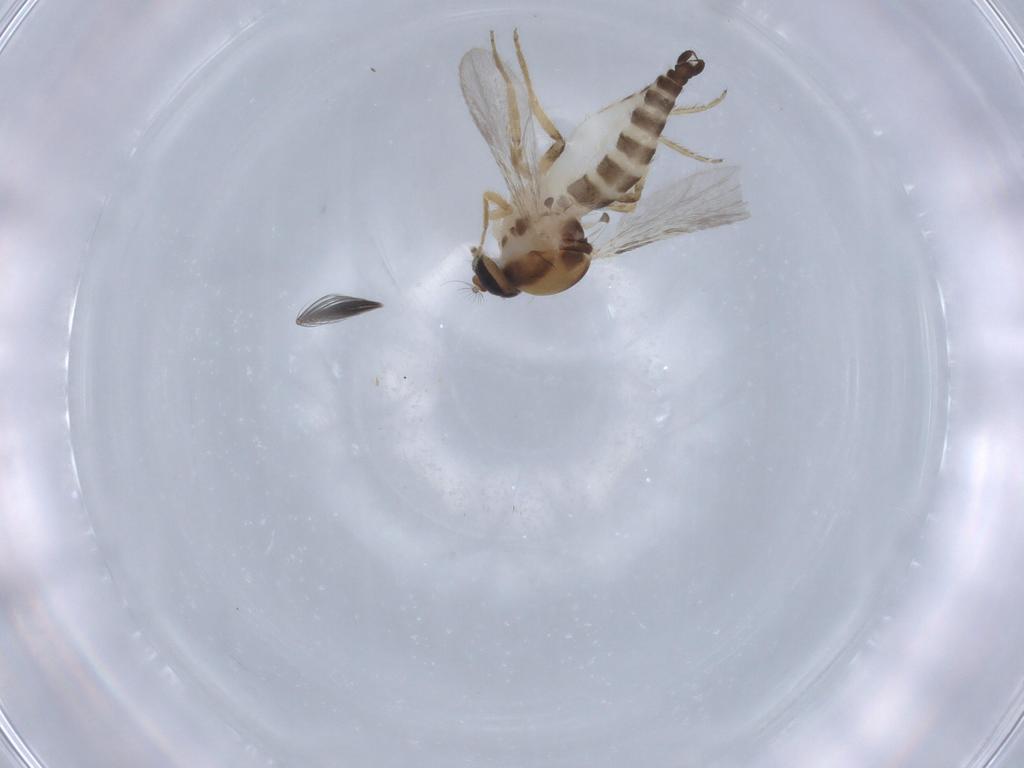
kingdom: Animalia
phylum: Arthropoda
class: Insecta
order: Diptera
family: Ceratopogonidae
